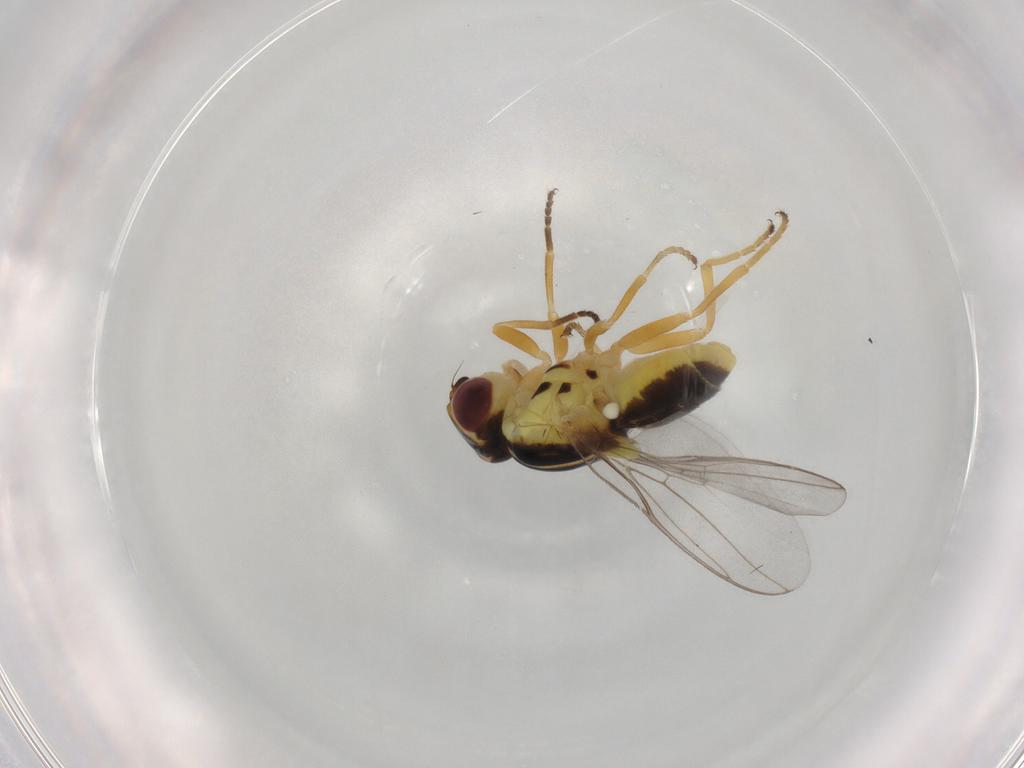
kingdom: Animalia
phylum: Arthropoda
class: Insecta
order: Diptera
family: Chloropidae
